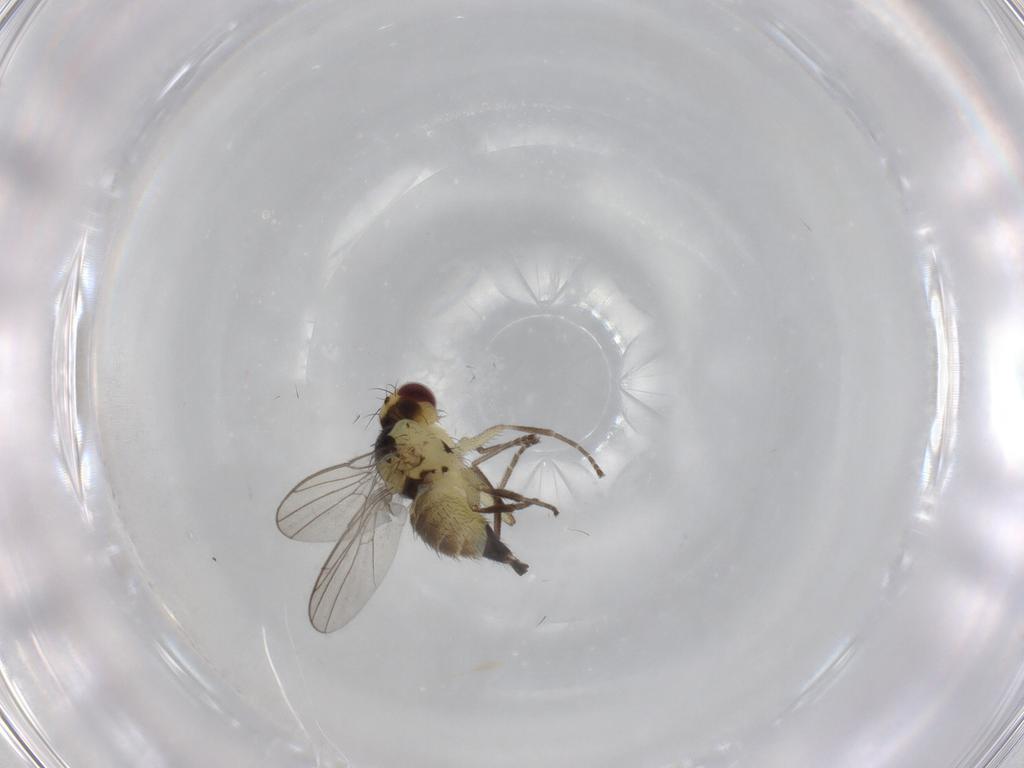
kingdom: Animalia
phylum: Arthropoda
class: Insecta
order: Diptera
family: Agromyzidae
